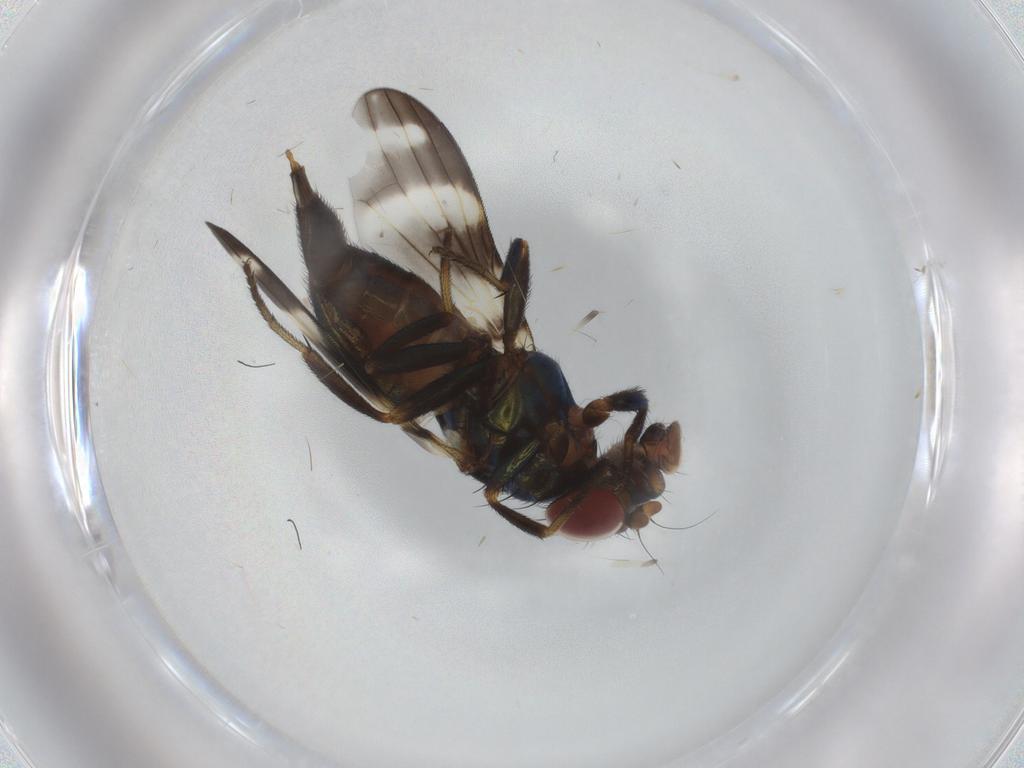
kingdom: Animalia
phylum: Arthropoda
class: Insecta
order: Diptera
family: Ulidiidae
